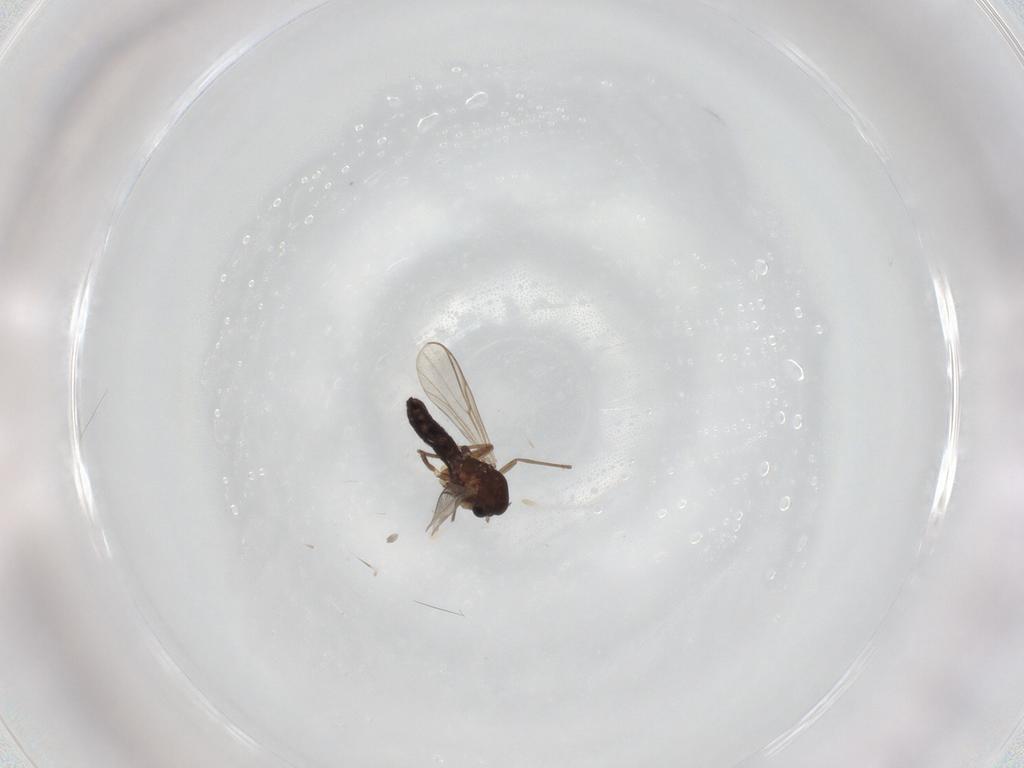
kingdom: Animalia
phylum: Arthropoda
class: Insecta
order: Diptera
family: Chironomidae
